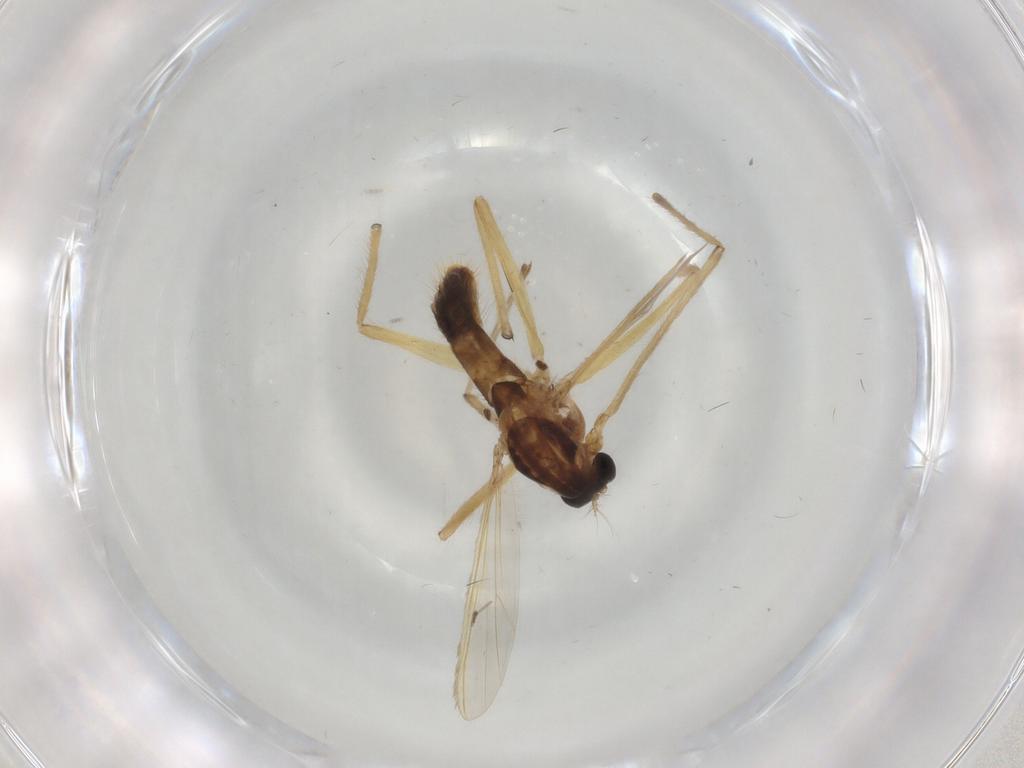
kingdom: Animalia
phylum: Arthropoda
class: Insecta
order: Diptera
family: Chironomidae
